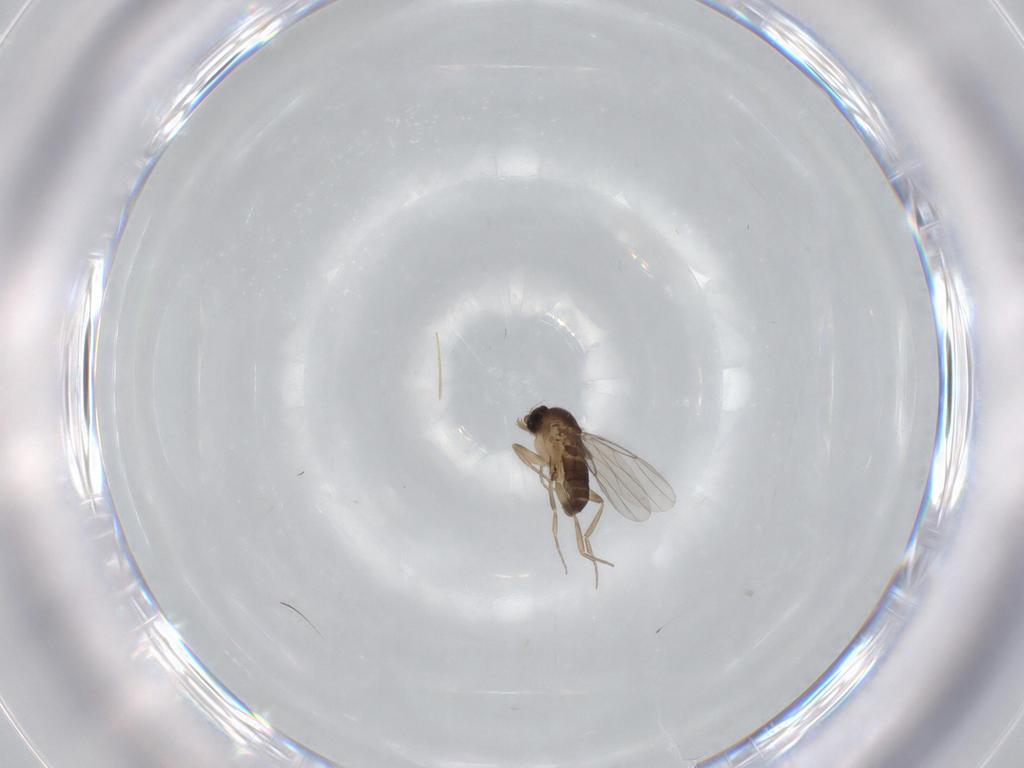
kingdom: Animalia
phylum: Arthropoda
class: Insecta
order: Diptera
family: Phoridae
